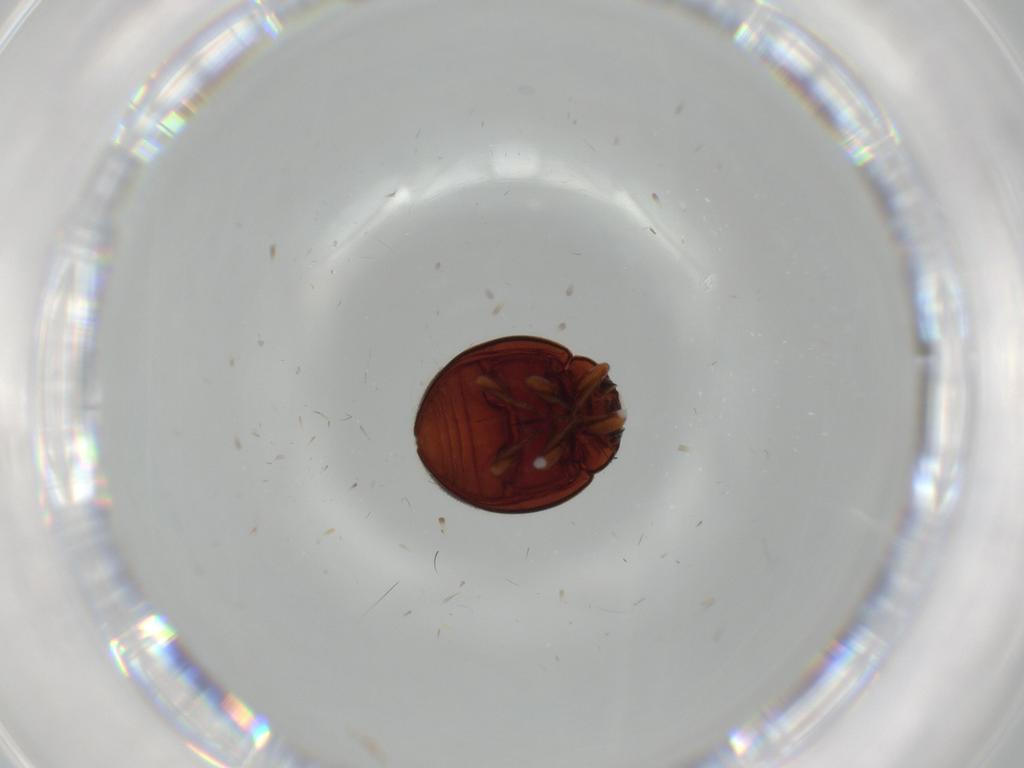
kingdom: Animalia
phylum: Arthropoda
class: Insecta
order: Coleoptera
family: Coccinellidae
